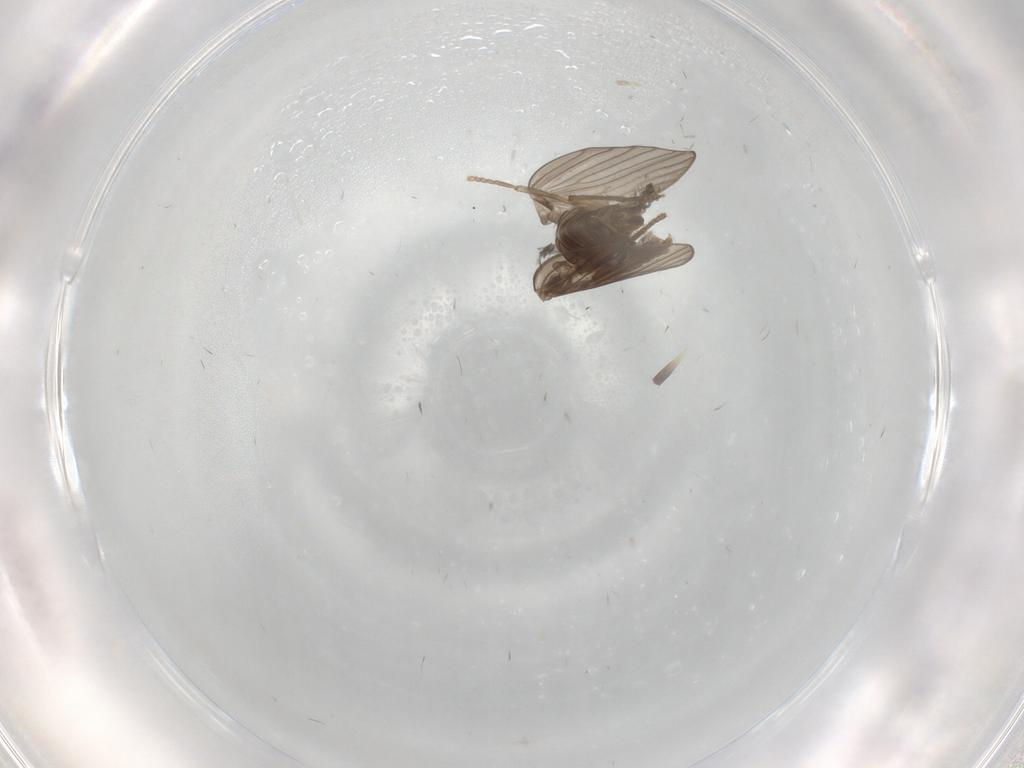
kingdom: Animalia
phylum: Arthropoda
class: Insecta
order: Diptera
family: Psychodidae
